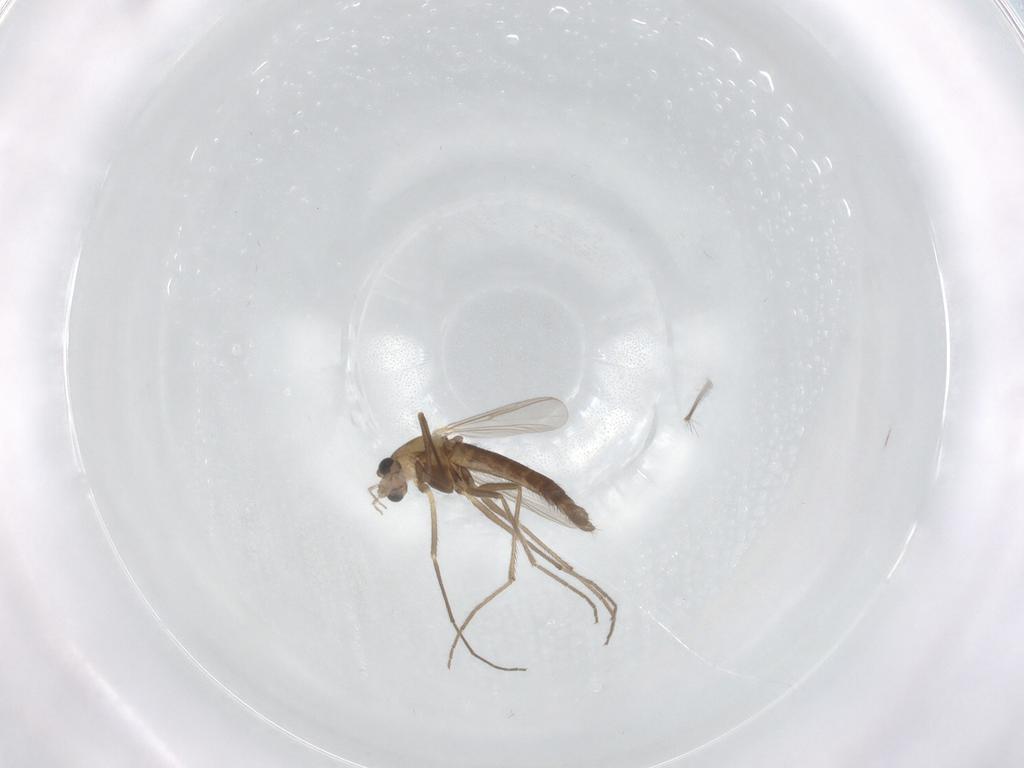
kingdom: Animalia
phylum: Arthropoda
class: Insecta
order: Diptera
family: Chironomidae
